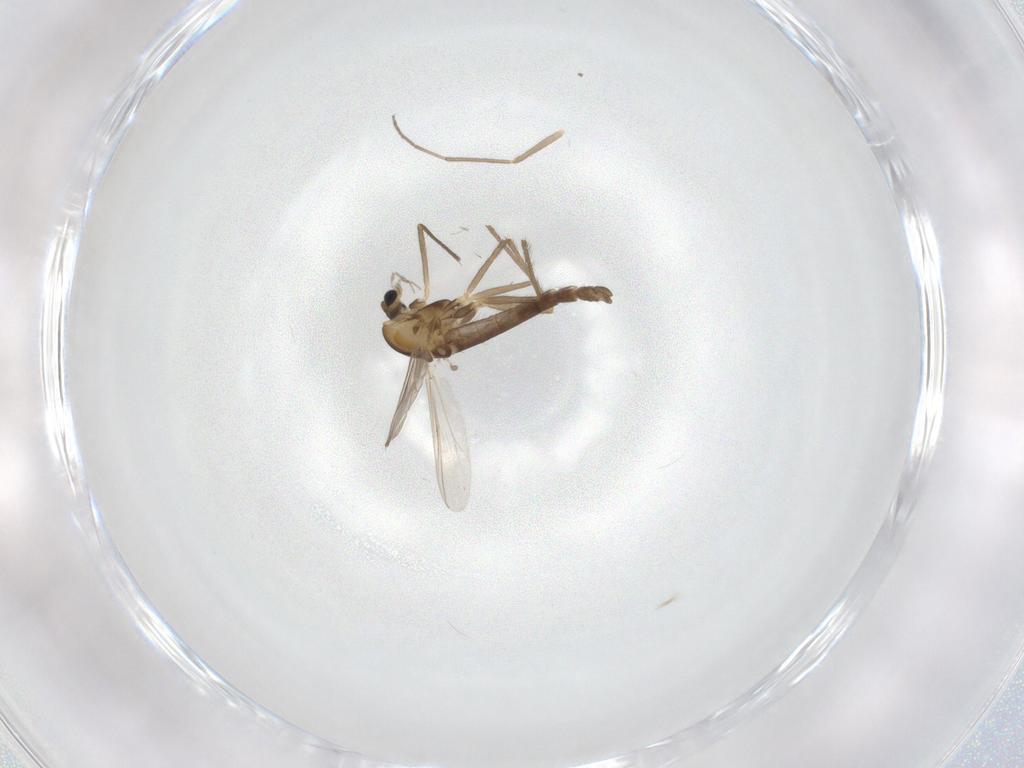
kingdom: Animalia
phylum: Arthropoda
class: Insecta
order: Diptera
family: Chironomidae
